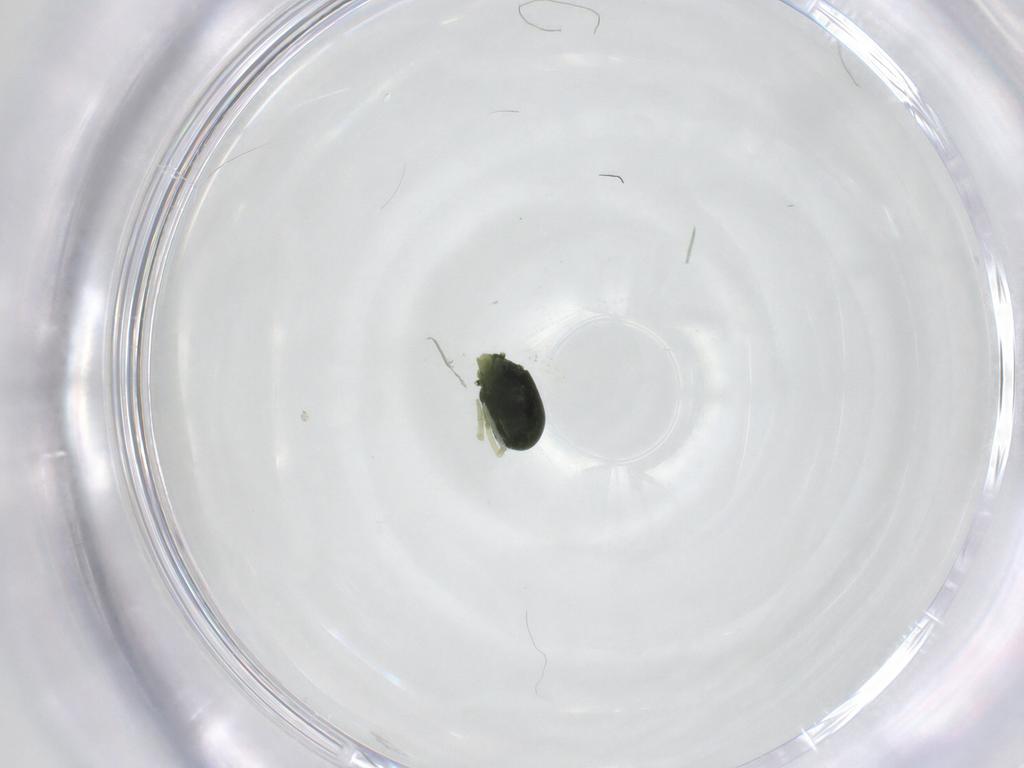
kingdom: Animalia
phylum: Arthropoda
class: Arachnida
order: Trombidiformes
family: Penthaleidae
